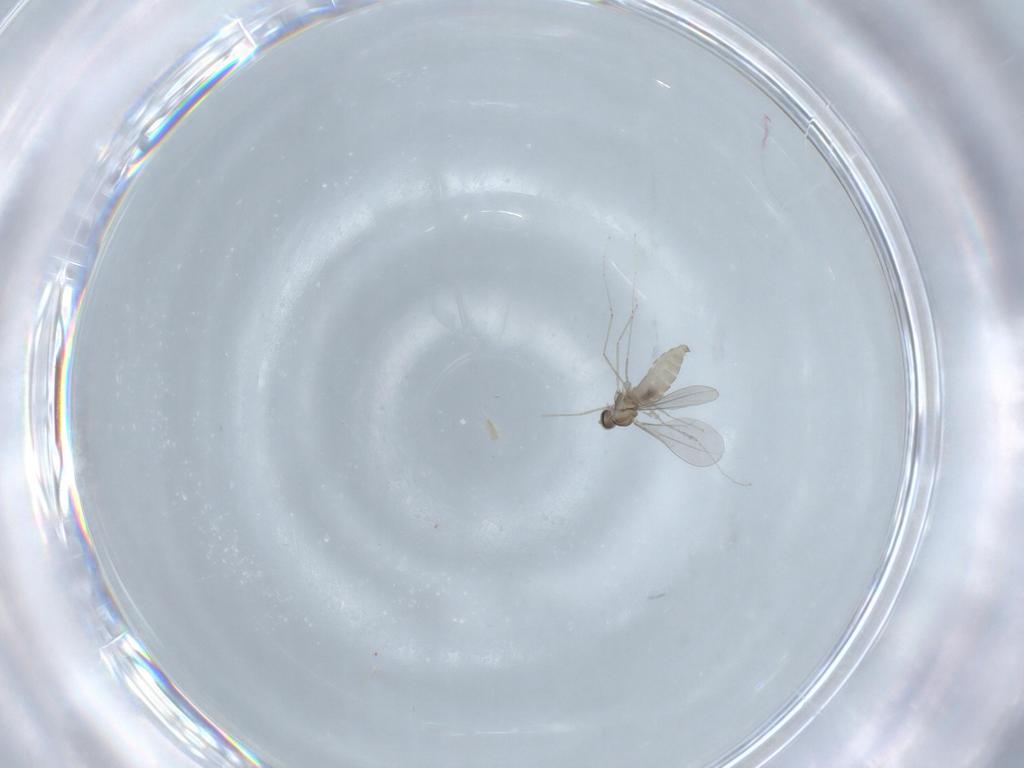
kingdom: Animalia
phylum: Arthropoda
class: Insecta
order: Diptera
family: Cecidomyiidae
